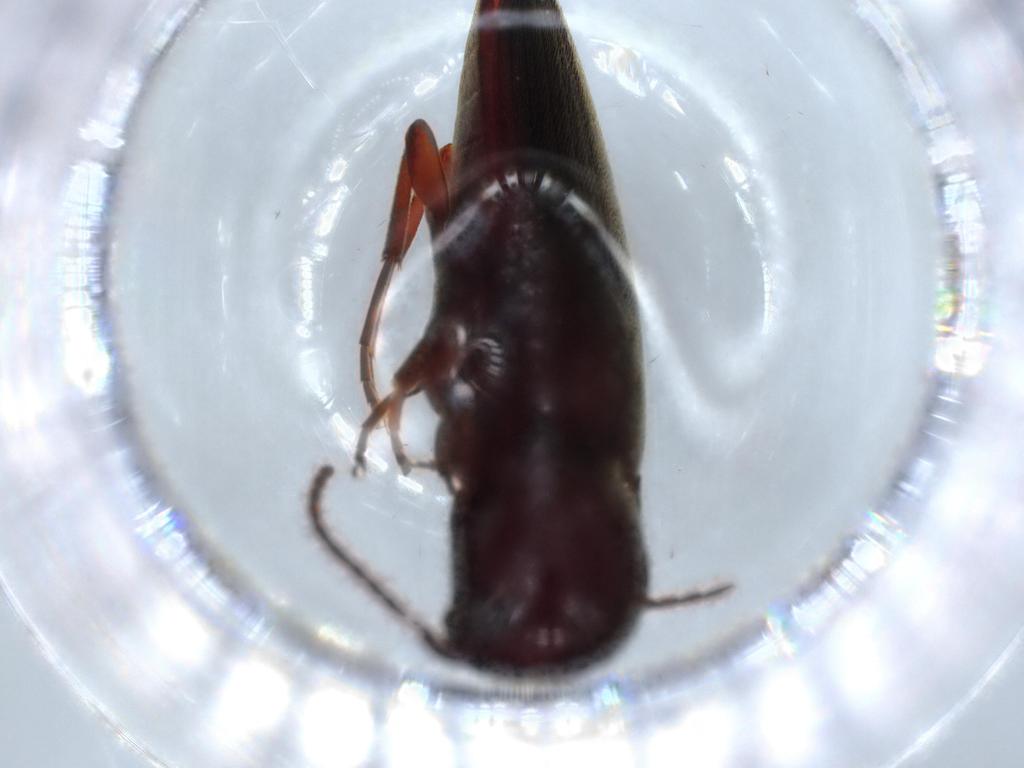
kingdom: Animalia
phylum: Arthropoda
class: Insecta
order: Coleoptera
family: Eucnemidae
